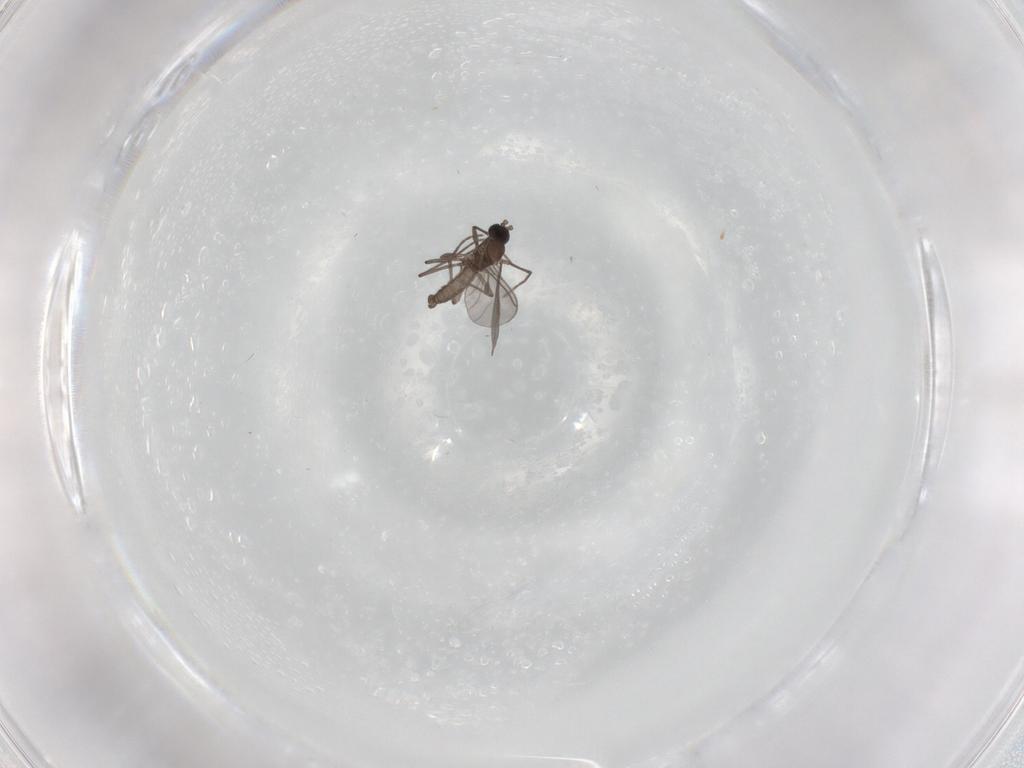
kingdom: Animalia
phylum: Arthropoda
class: Insecta
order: Diptera
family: Sciaridae
